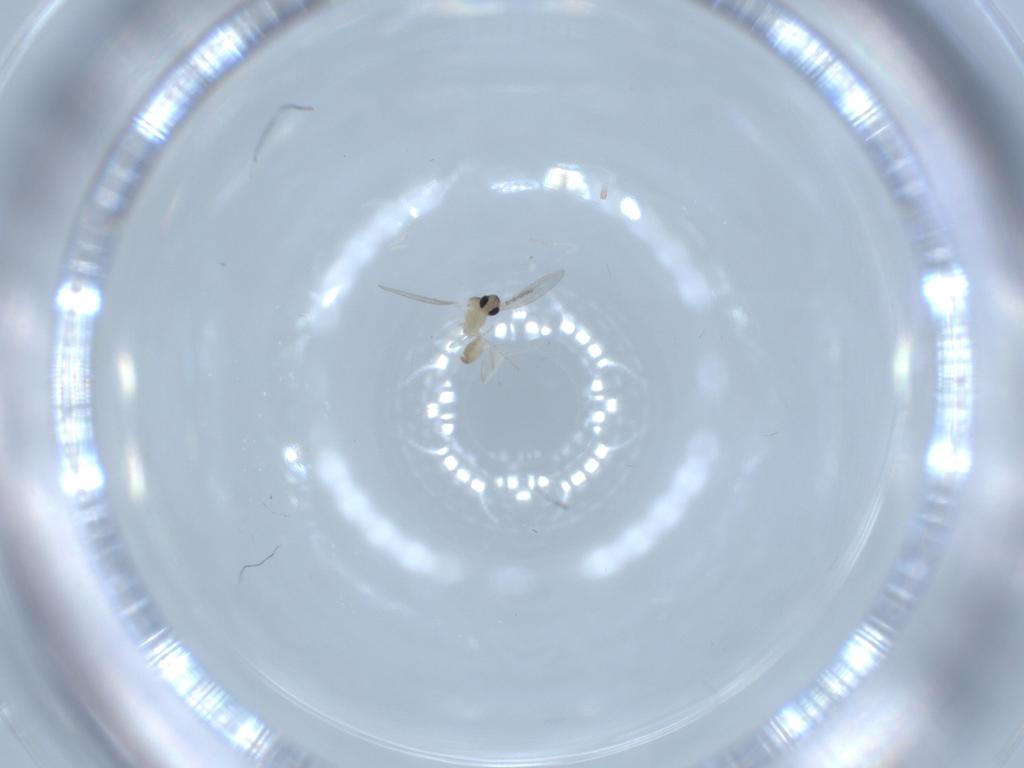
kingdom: Animalia
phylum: Arthropoda
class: Insecta
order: Diptera
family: Cecidomyiidae
